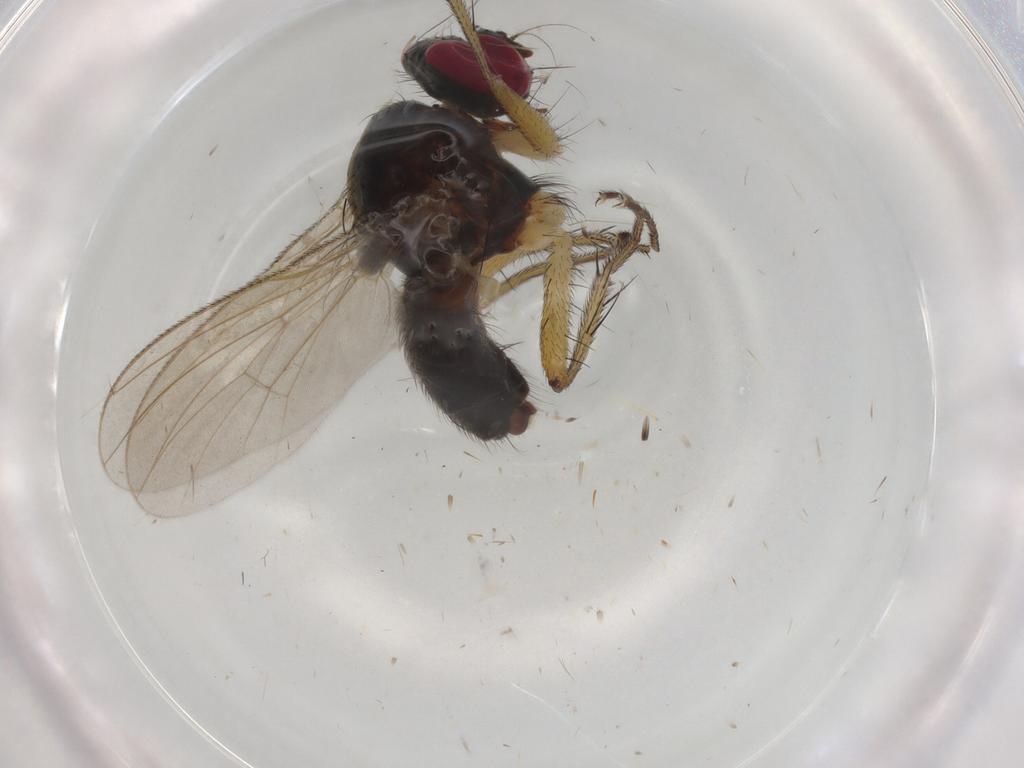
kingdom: Animalia
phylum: Arthropoda
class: Insecta
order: Diptera
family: Muscidae
